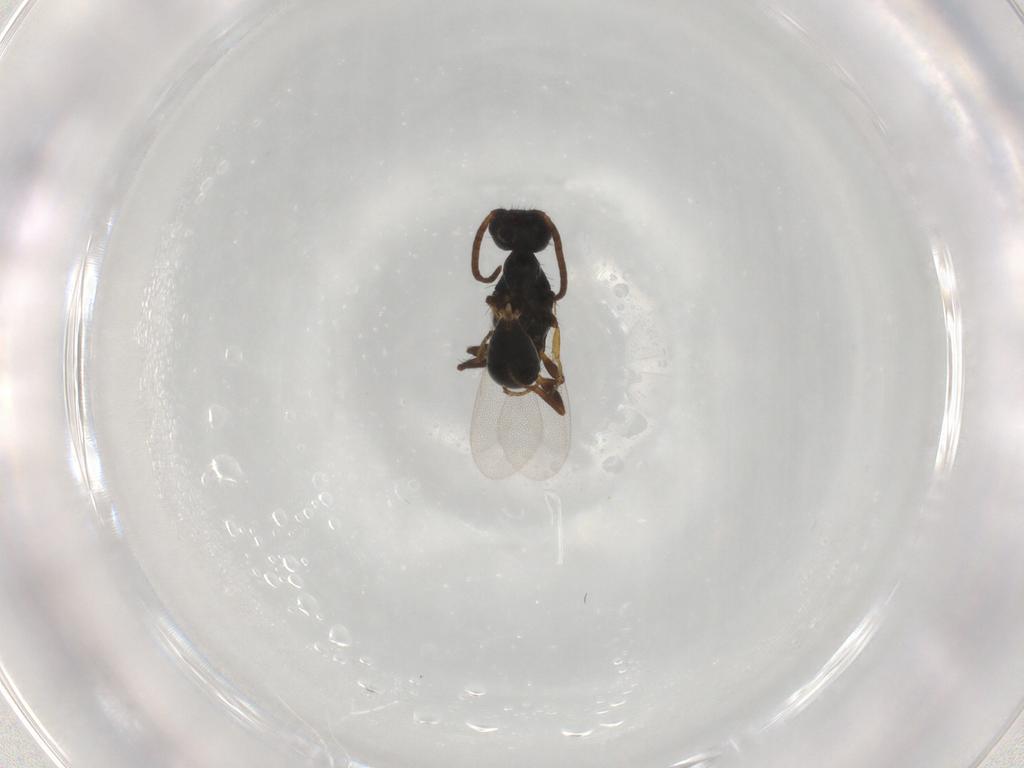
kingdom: Animalia
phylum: Arthropoda
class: Insecta
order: Hymenoptera
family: Bethylidae
